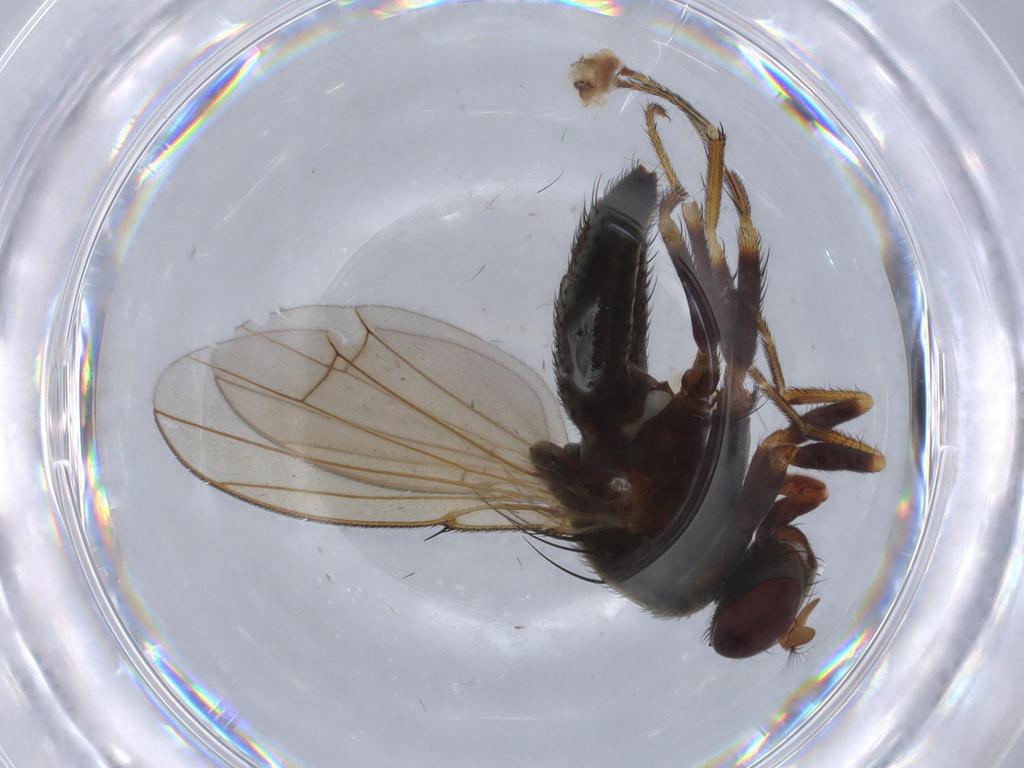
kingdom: Animalia
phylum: Arthropoda
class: Insecta
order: Diptera
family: Ephydridae
